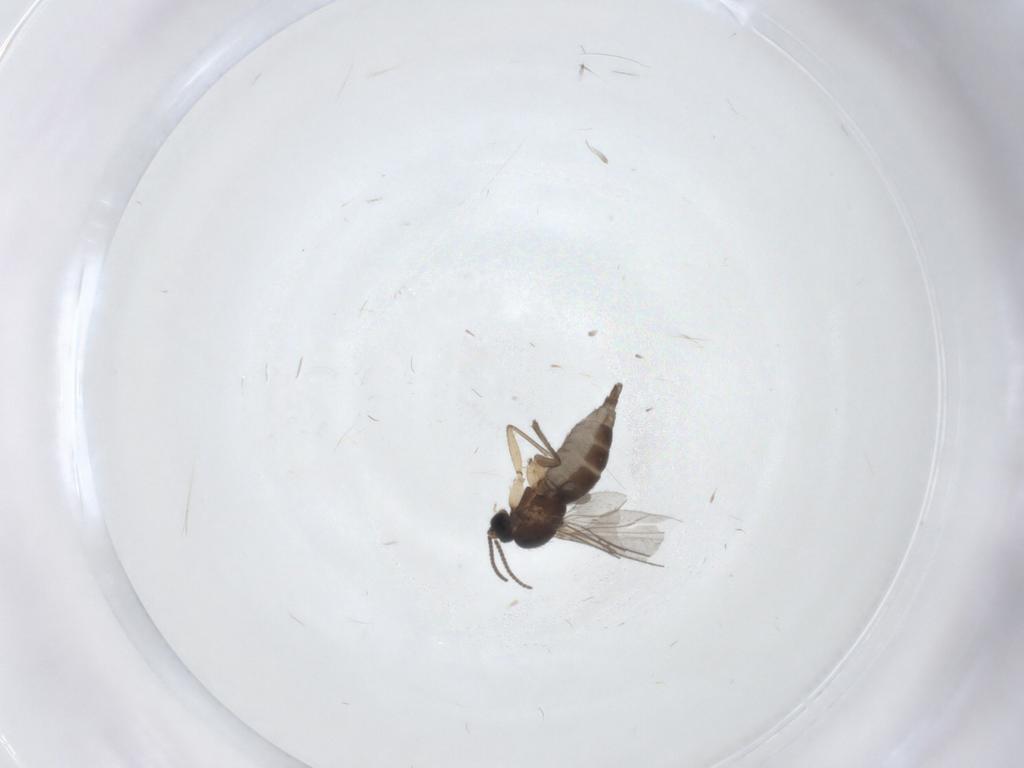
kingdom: Animalia
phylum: Arthropoda
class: Insecta
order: Diptera
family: Sciaridae
